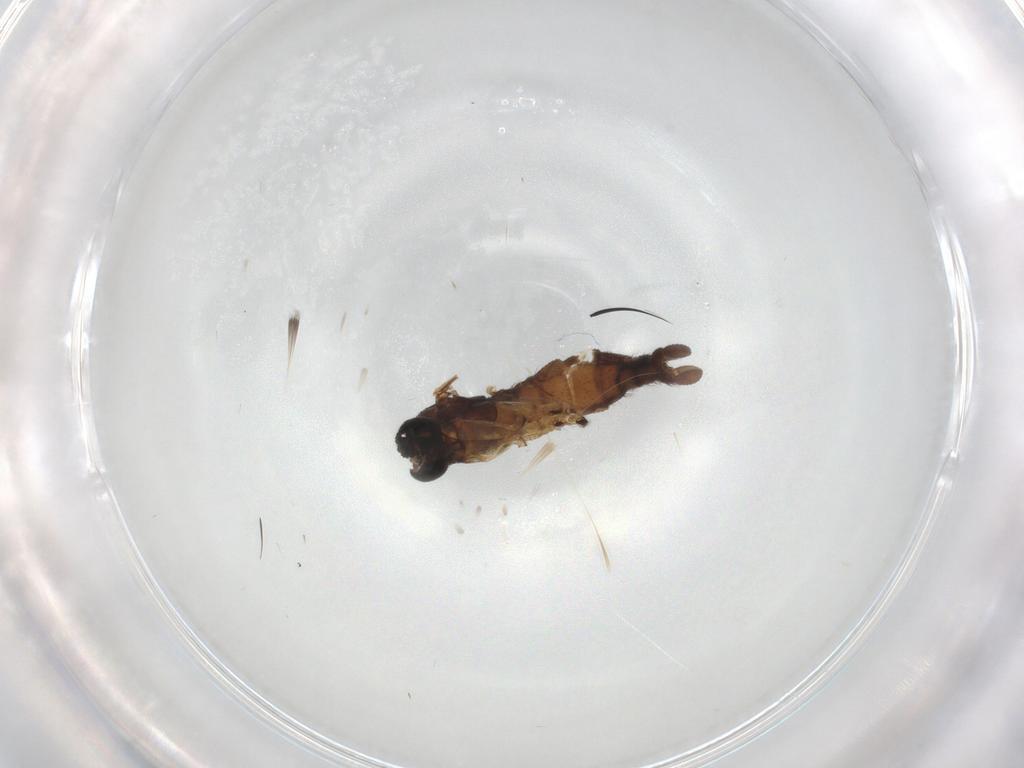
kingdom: Animalia
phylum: Arthropoda
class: Insecta
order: Diptera
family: Sciaridae
